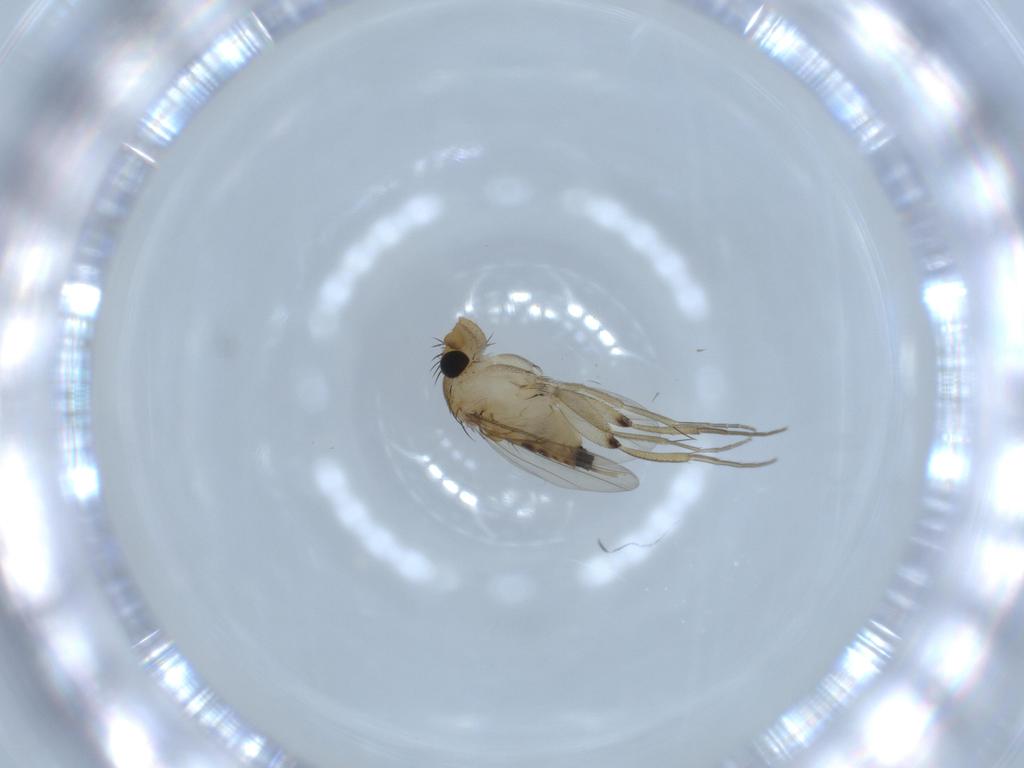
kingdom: Animalia
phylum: Arthropoda
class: Insecta
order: Diptera
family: Phoridae
